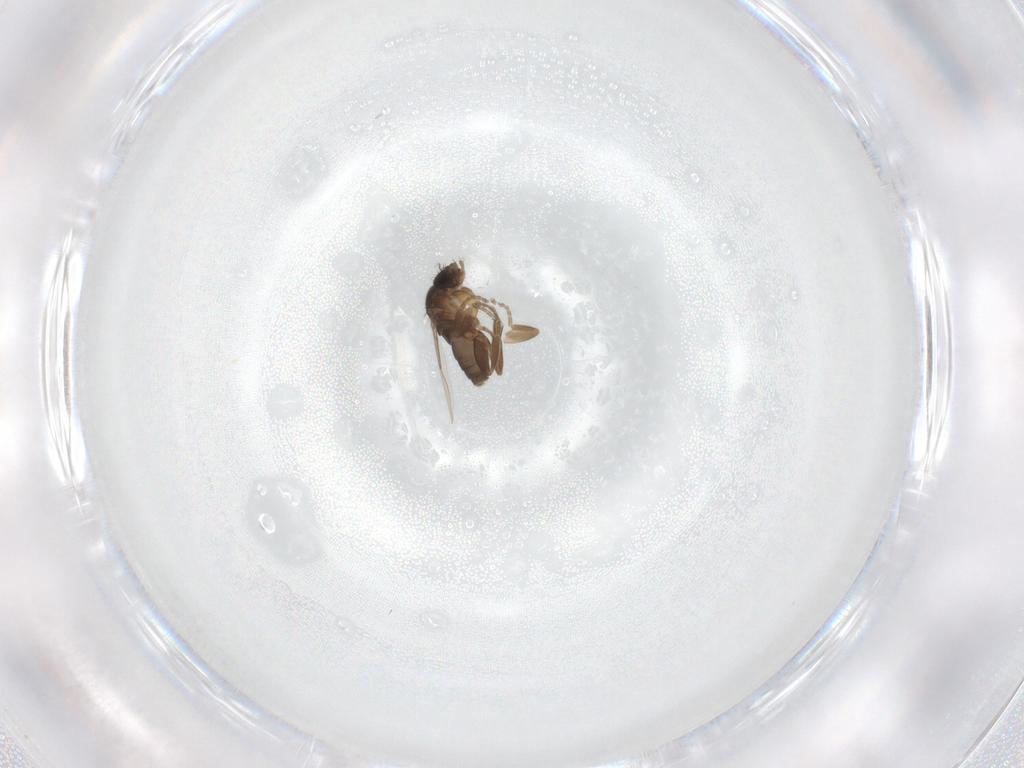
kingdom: Animalia
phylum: Arthropoda
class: Insecta
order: Diptera
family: Phoridae
